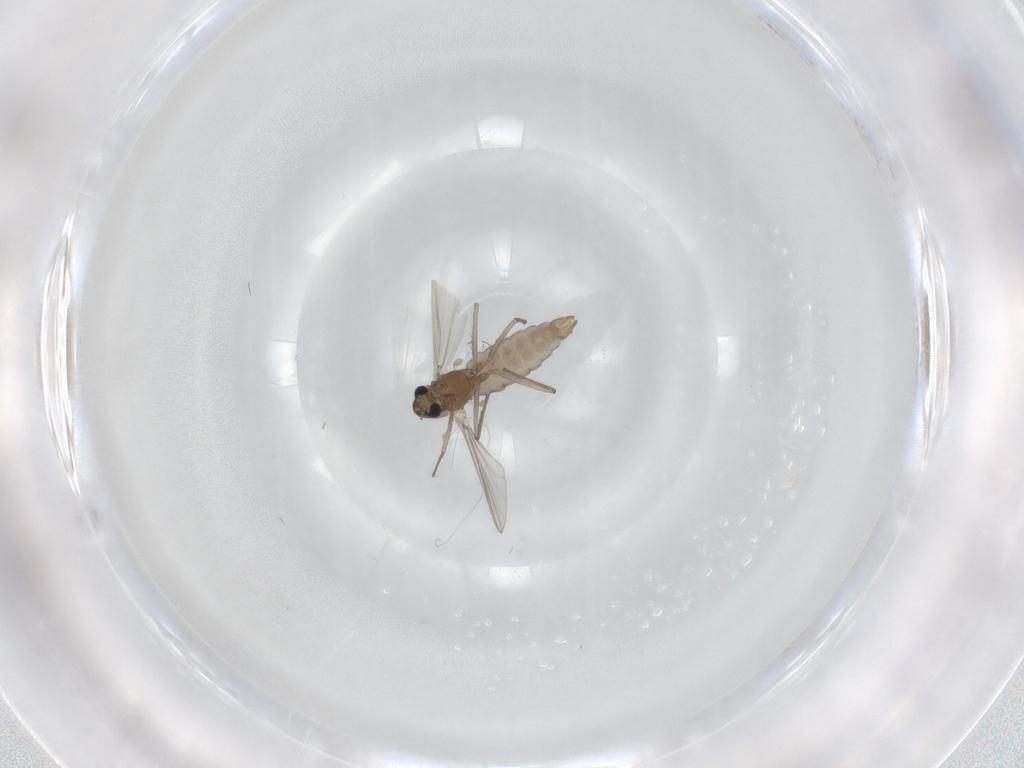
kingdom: Animalia
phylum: Arthropoda
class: Insecta
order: Diptera
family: Chironomidae
